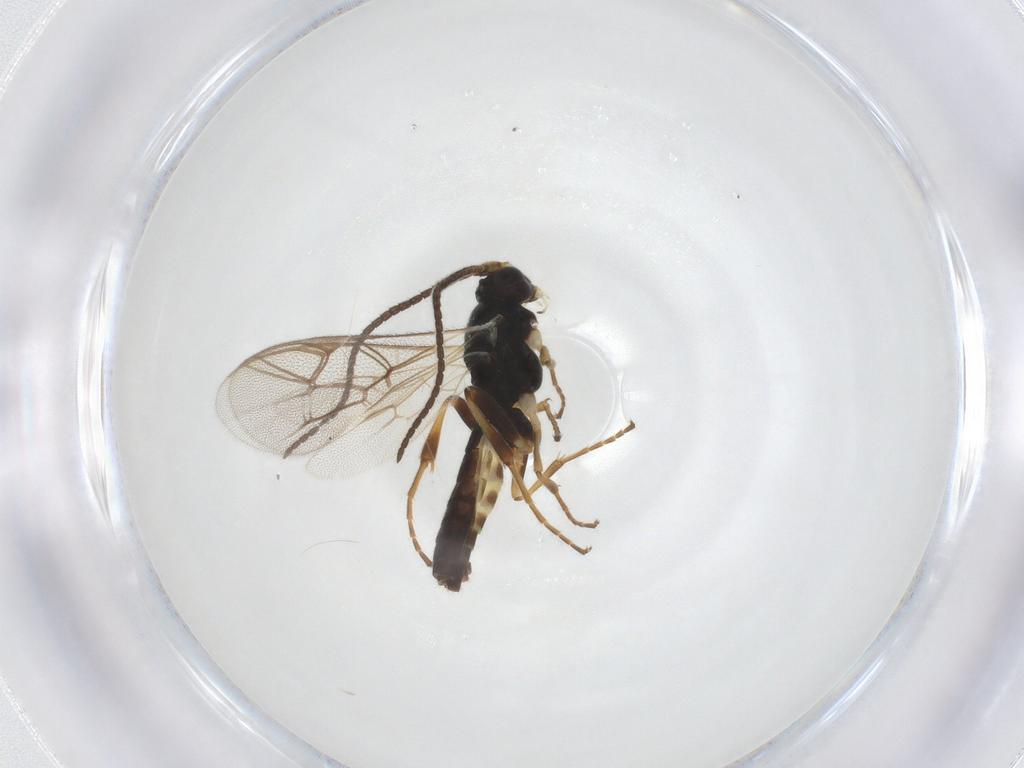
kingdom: Animalia
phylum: Arthropoda
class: Insecta
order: Hymenoptera
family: Ichneumonidae
